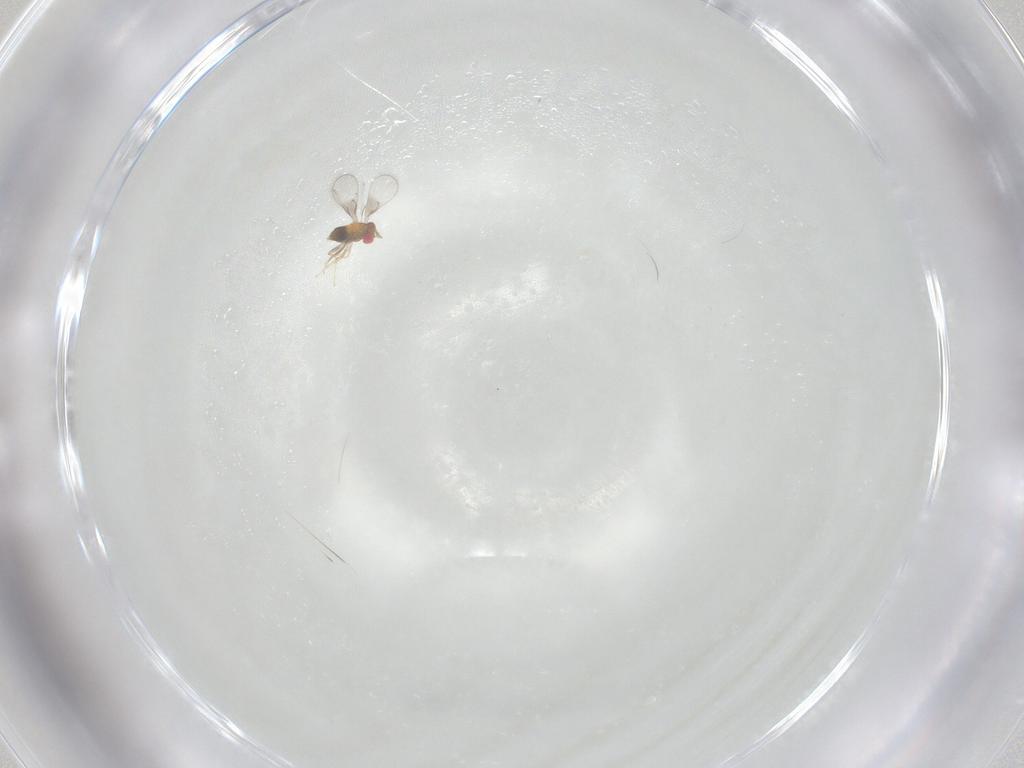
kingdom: Animalia
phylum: Arthropoda
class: Insecta
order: Hymenoptera
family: Trichogrammatidae
